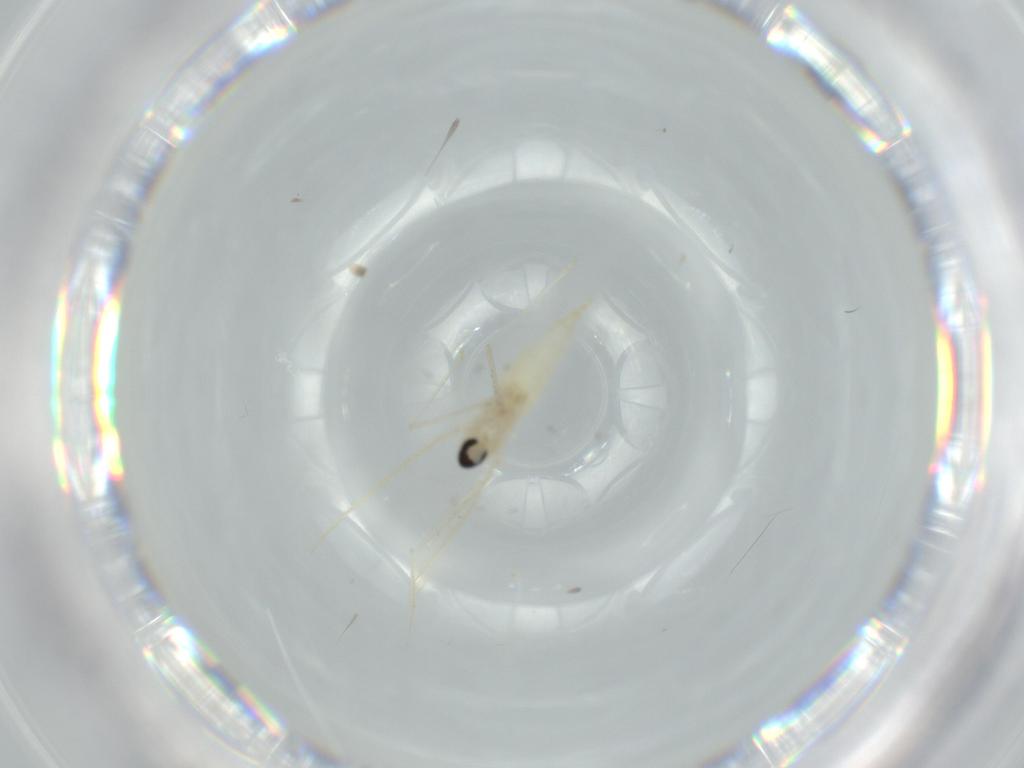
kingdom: Animalia
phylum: Arthropoda
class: Insecta
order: Diptera
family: Cecidomyiidae
